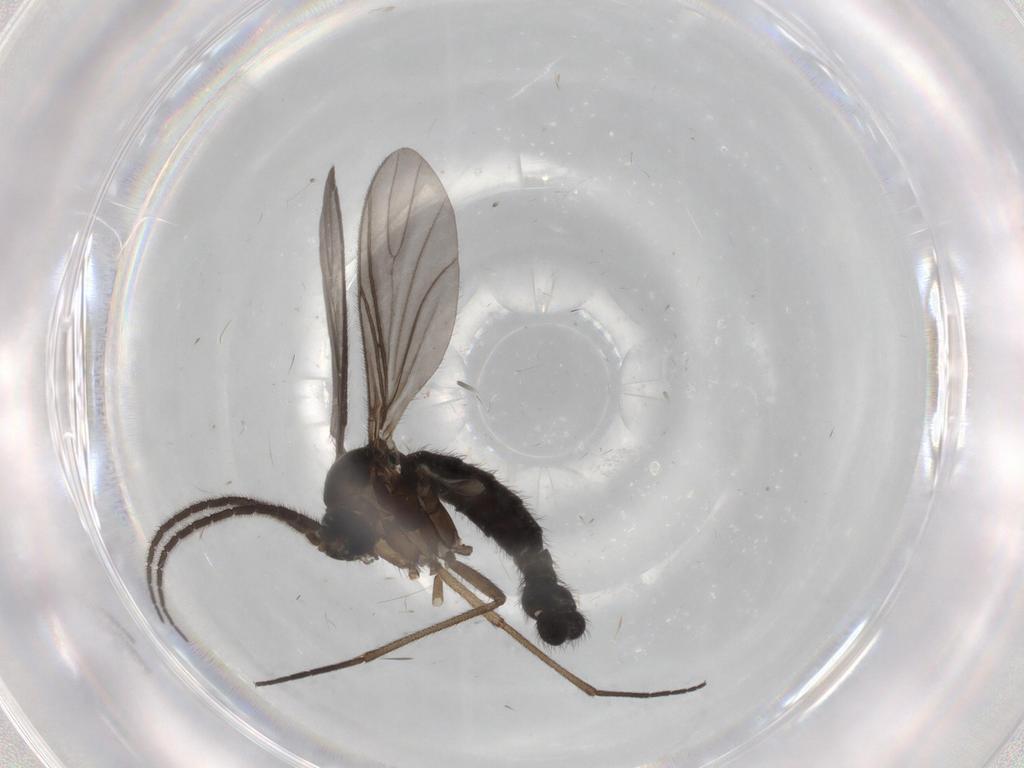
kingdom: Animalia
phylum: Arthropoda
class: Insecta
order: Diptera
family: Sciaridae
